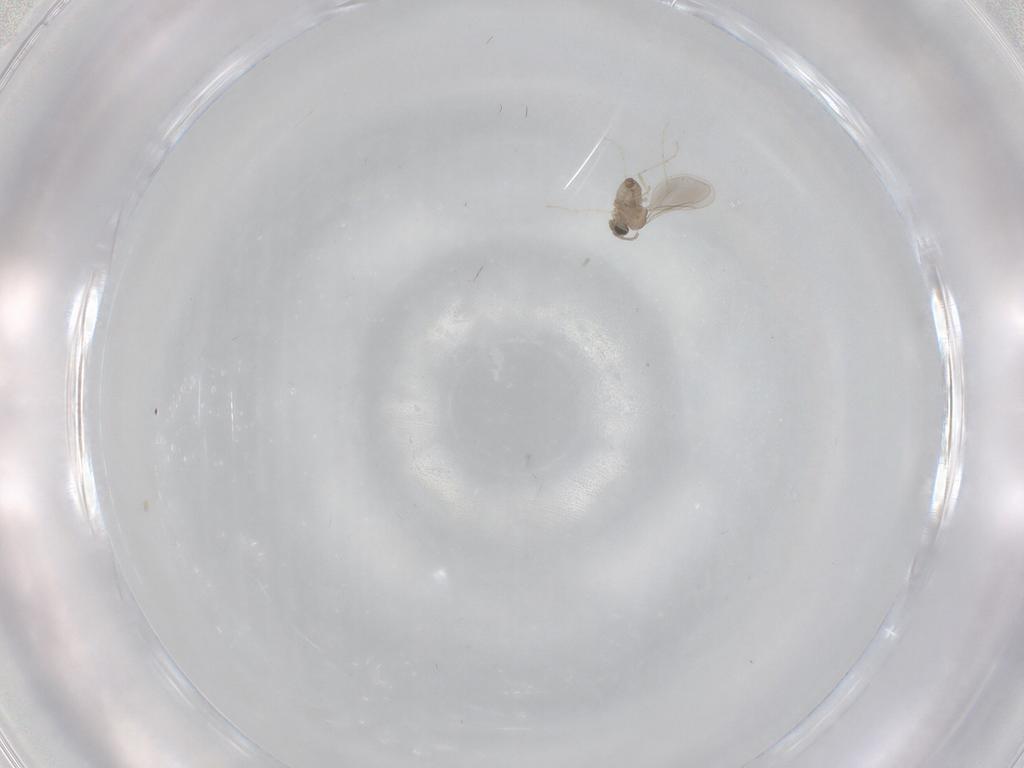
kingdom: Animalia
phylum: Arthropoda
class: Insecta
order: Diptera
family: Cecidomyiidae
